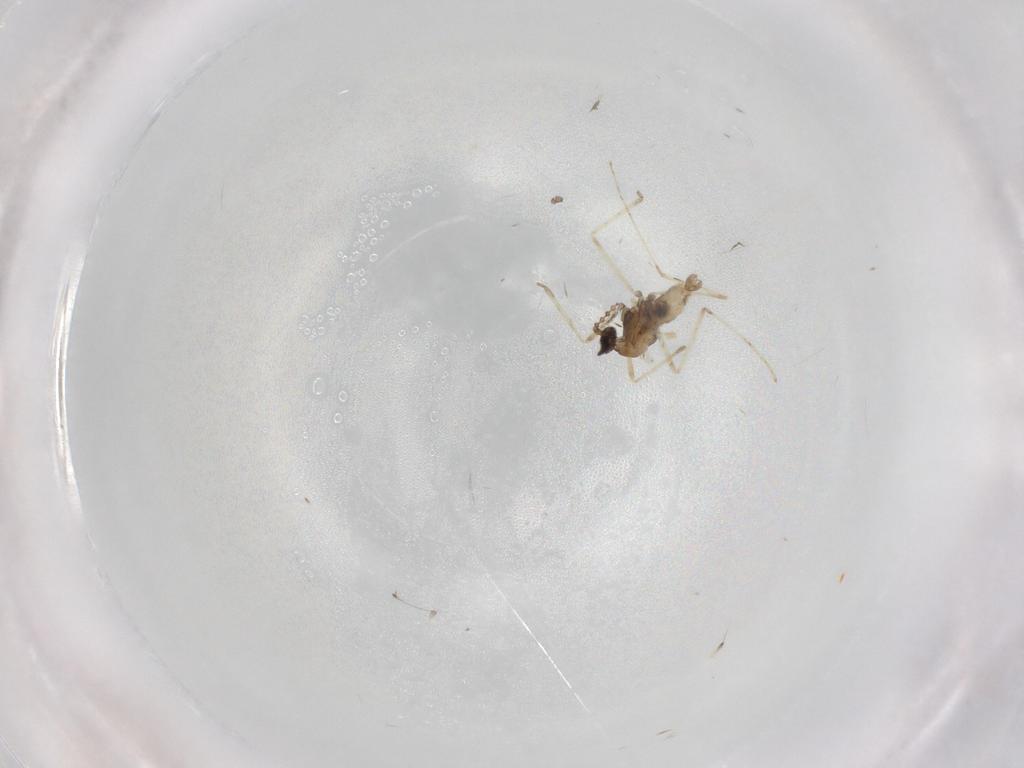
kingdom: Animalia
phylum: Arthropoda
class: Insecta
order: Diptera
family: Cecidomyiidae
